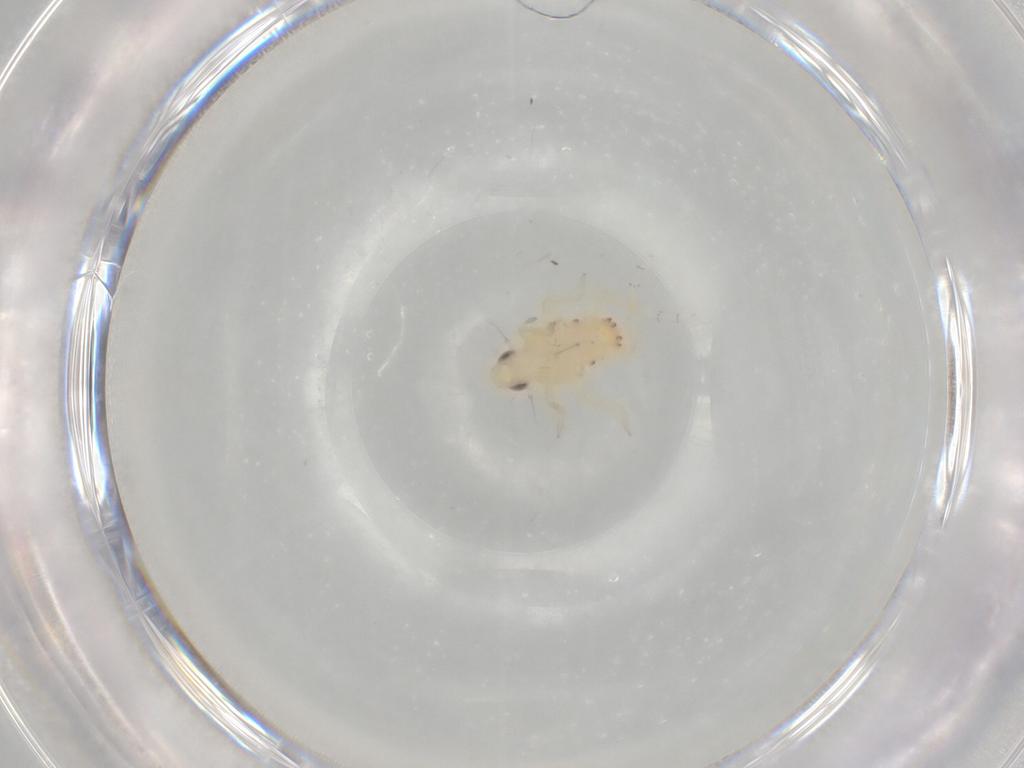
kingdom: Animalia
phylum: Arthropoda
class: Insecta
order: Hemiptera
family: Tropiduchidae
